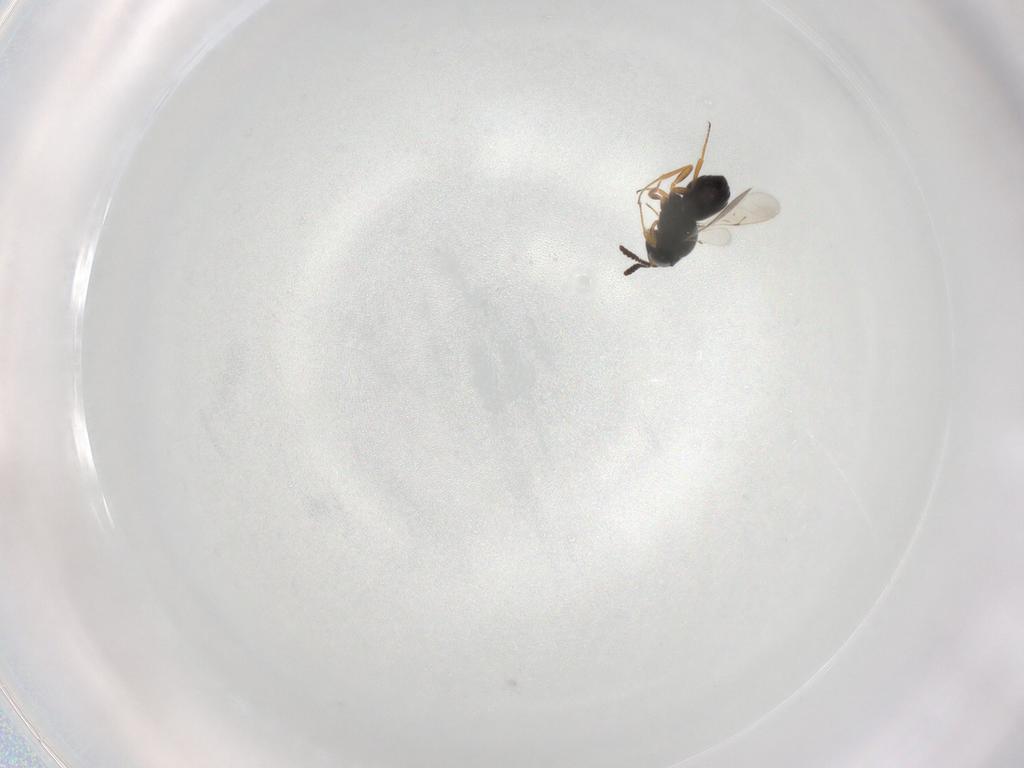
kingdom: Animalia
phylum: Arthropoda
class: Insecta
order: Hymenoptera
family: Scelionidae
